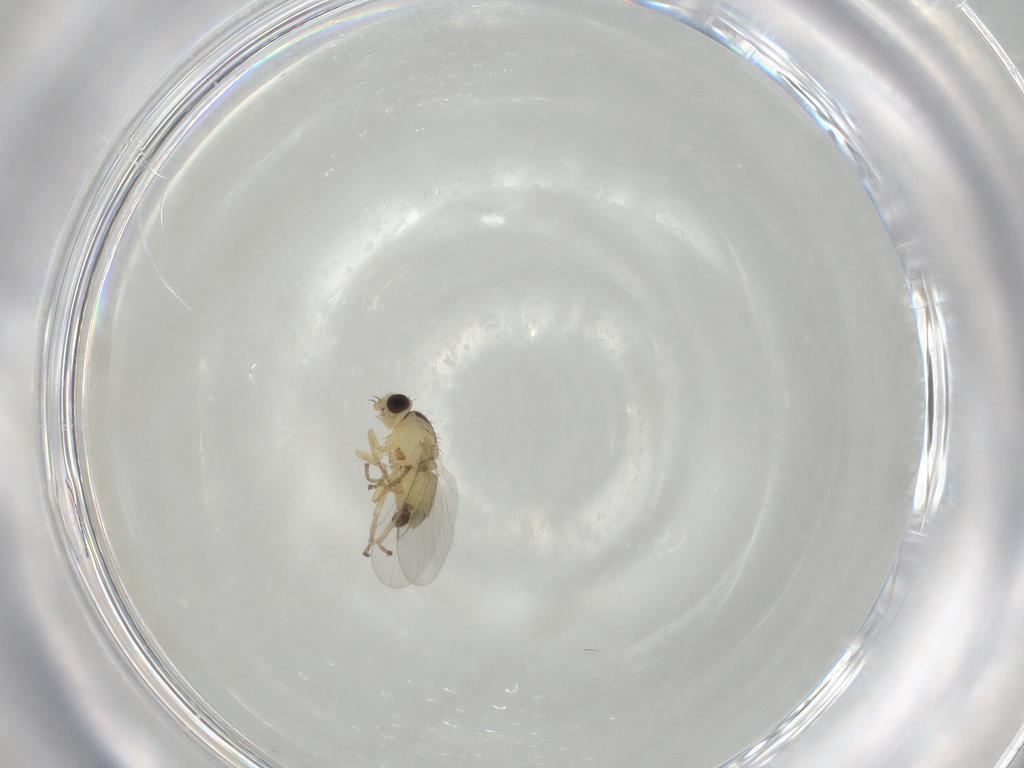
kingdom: Animalia
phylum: Arthropoda
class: Insecta
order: Diptera
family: Agromyzidae
